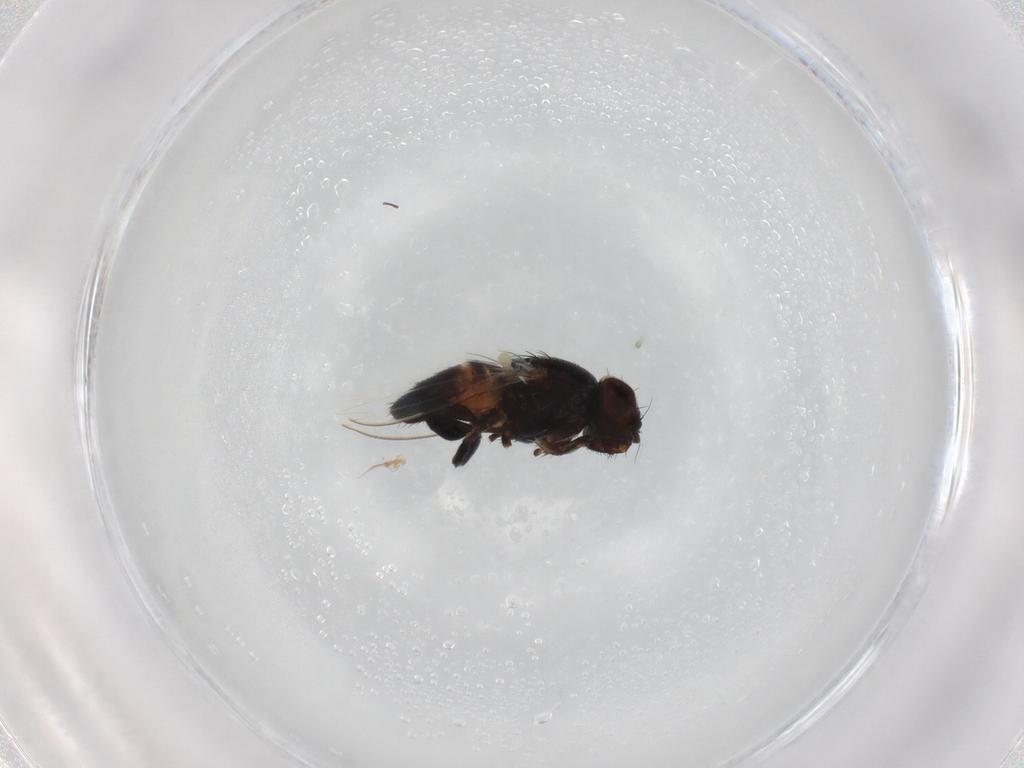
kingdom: Animalia
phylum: Arthropoda
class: Insecta
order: Diptera
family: Milichiidae
